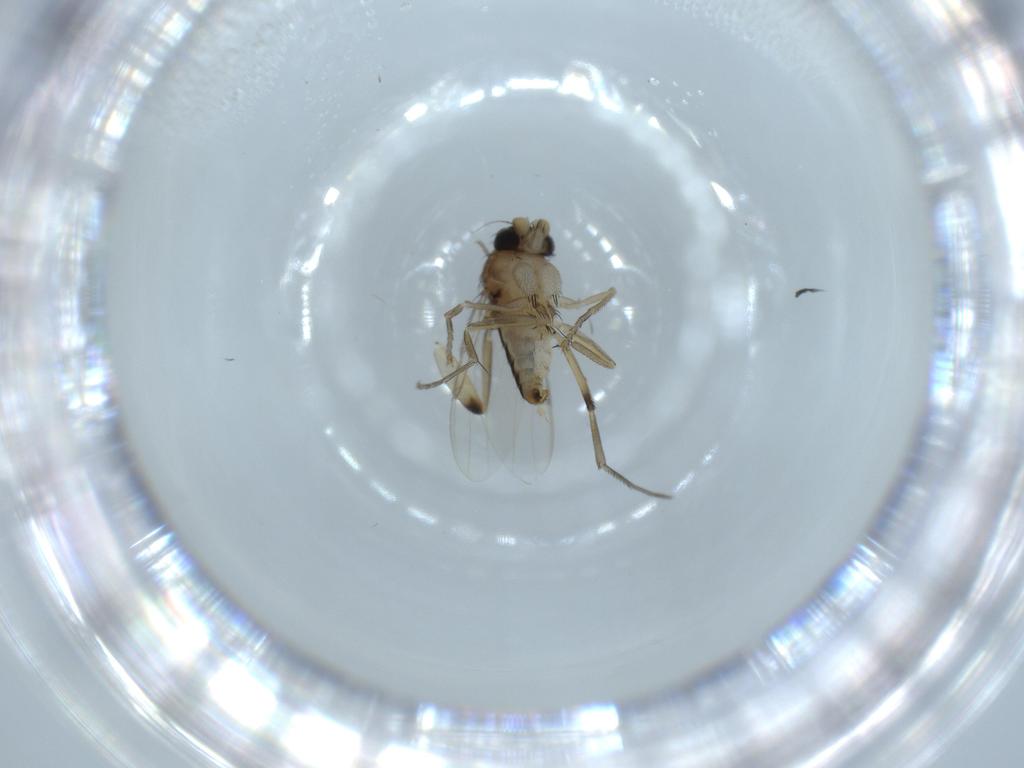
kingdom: Animalia
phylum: Arthropoda
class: Insecta
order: Diptera
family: Phoridae
